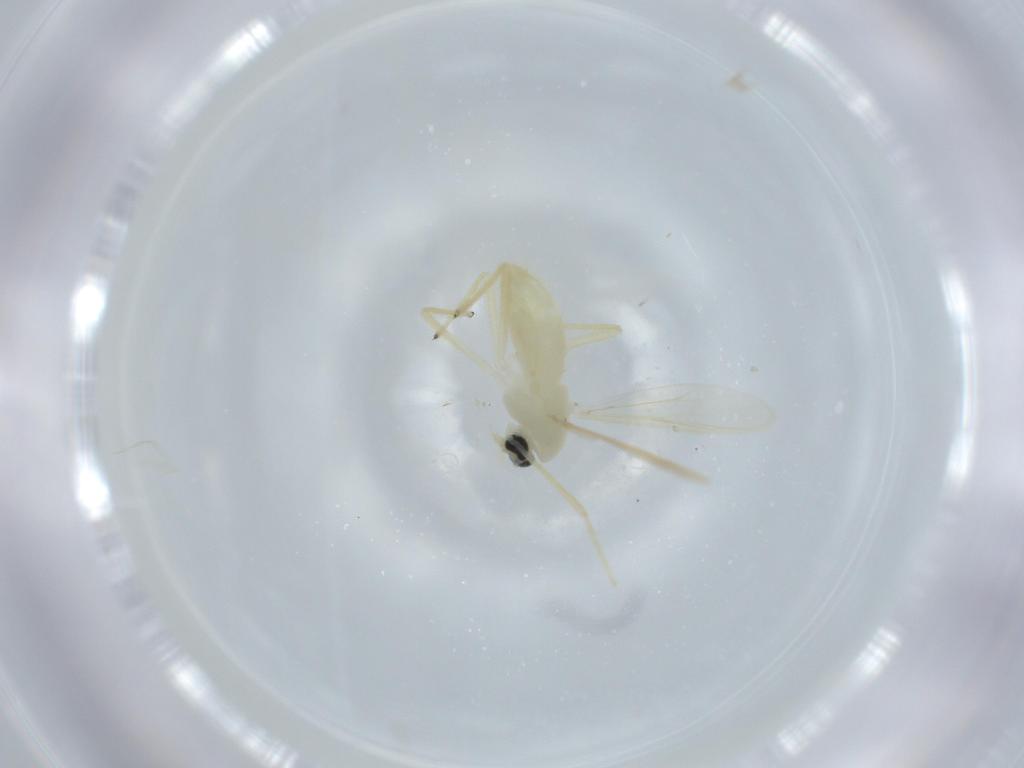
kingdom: Animalia
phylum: Arthropoda
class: Insecta
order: Diptera
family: Chironomidae
